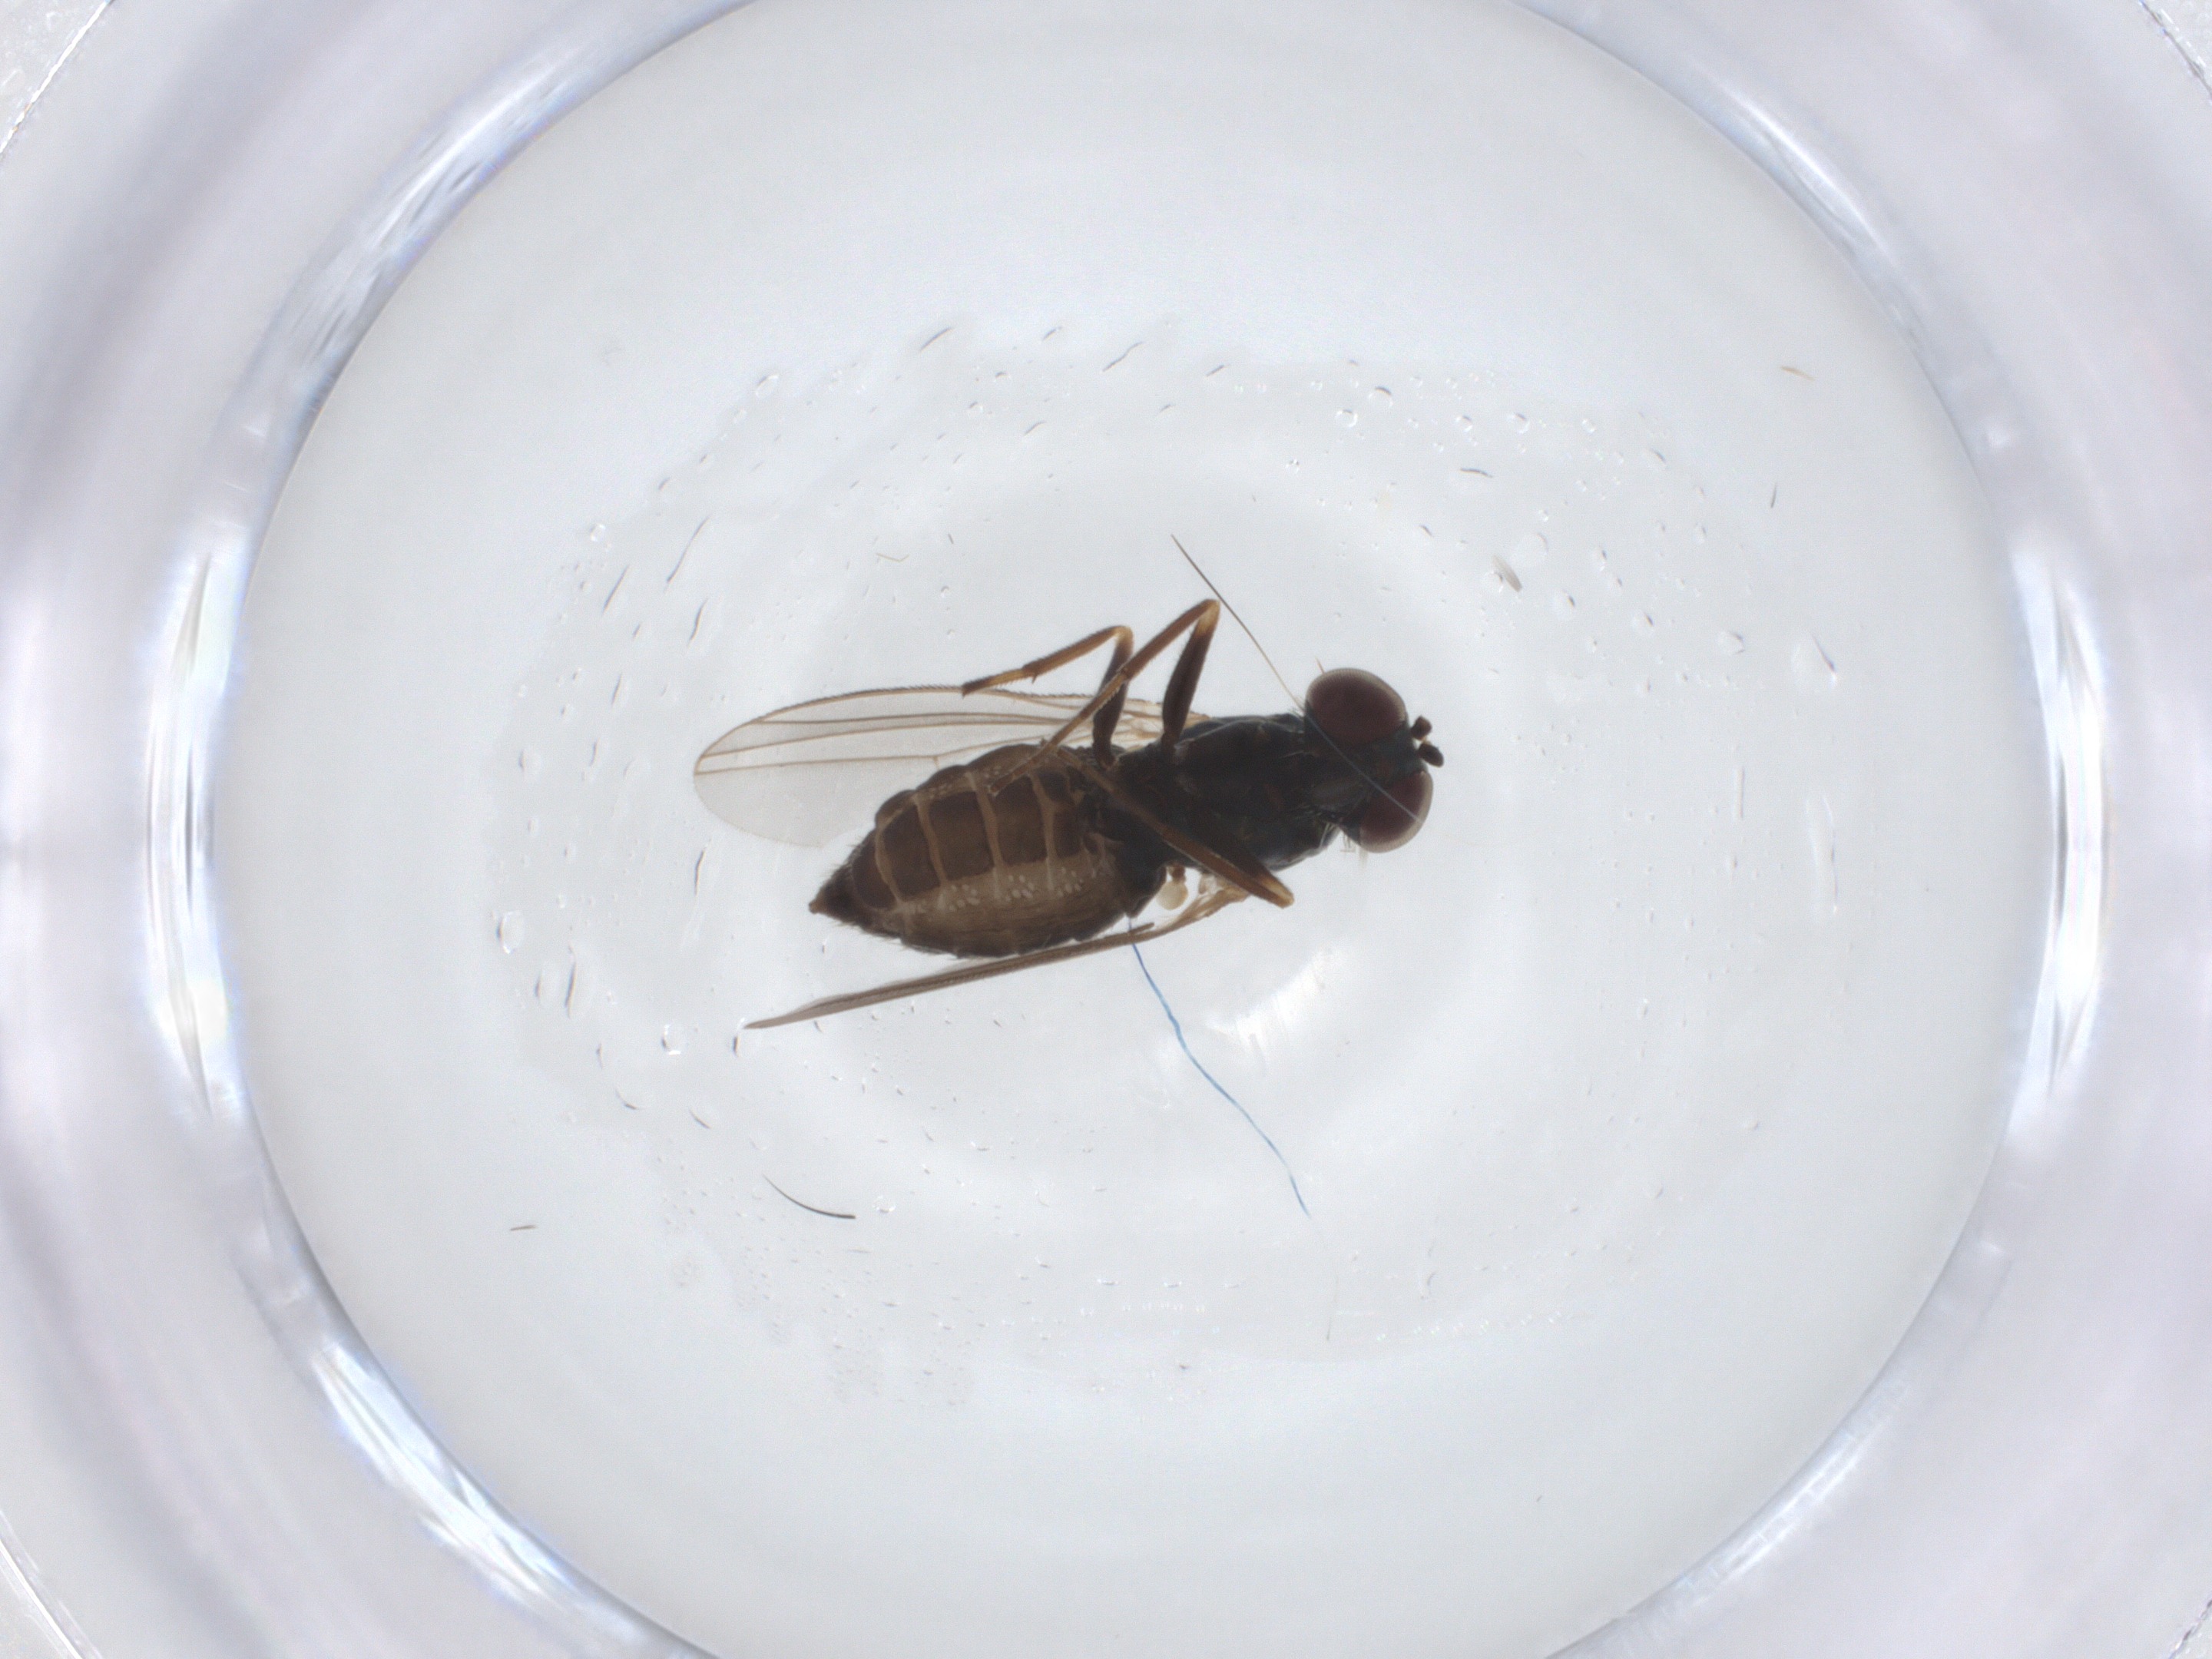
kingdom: Animalia
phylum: Arthropoda
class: Insecta
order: Diptera
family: Dolichopodidae
